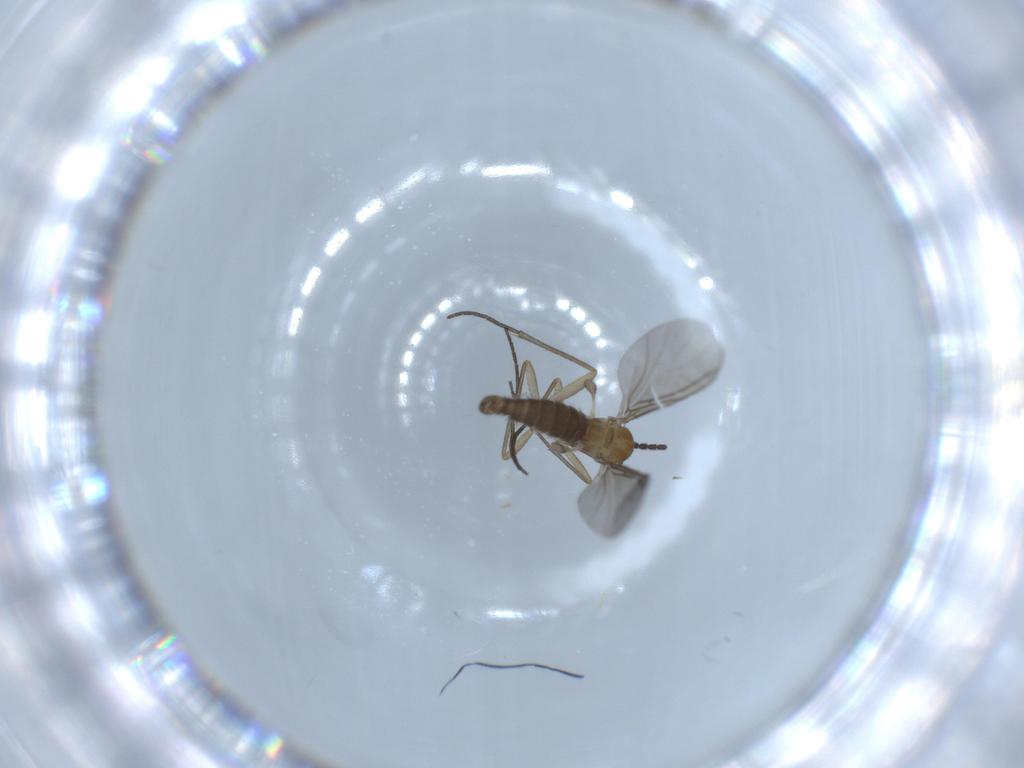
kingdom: Animalia
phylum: Arthropoda
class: Insecta
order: Diptera
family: Sciaridae
